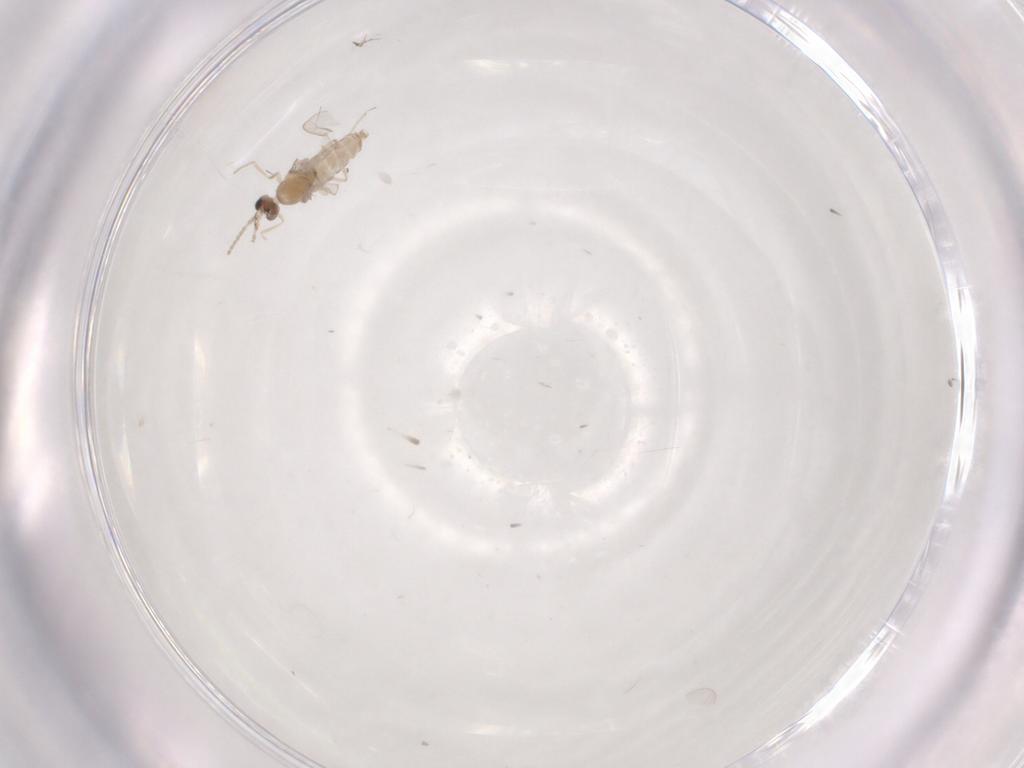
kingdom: Animalia
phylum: Arthropoda
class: Insecta
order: Diptera
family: Cecidomyiidae
